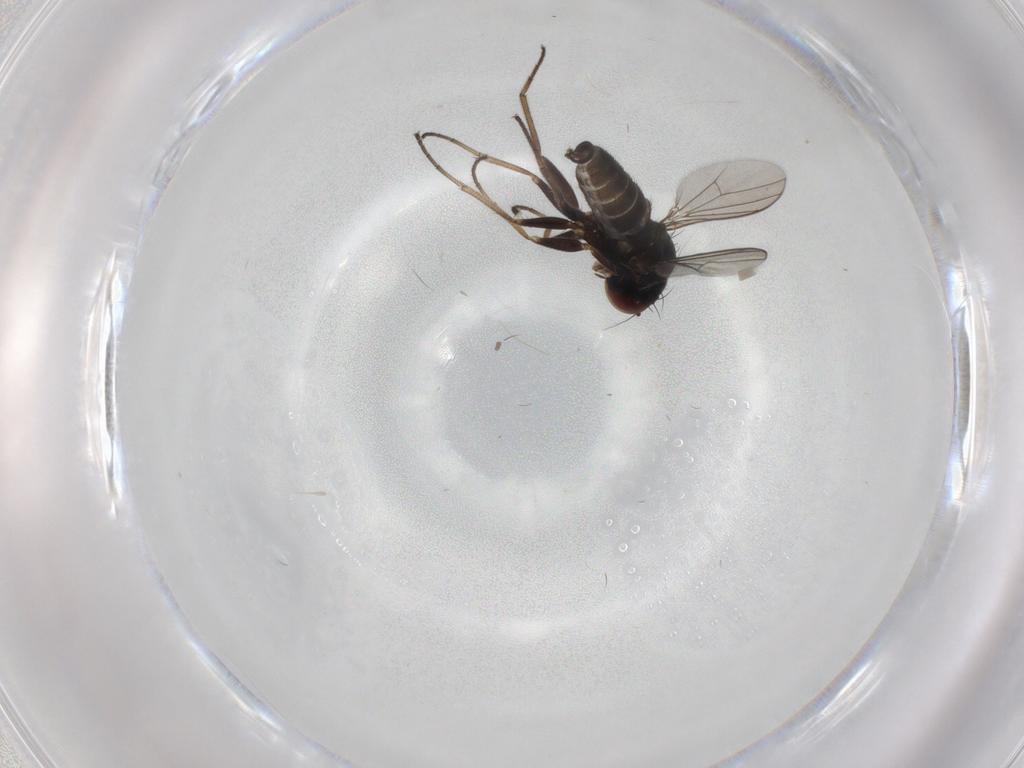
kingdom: Animalia
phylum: Arthropoda
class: Insecta
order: Diptera
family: Dolichopodidae
